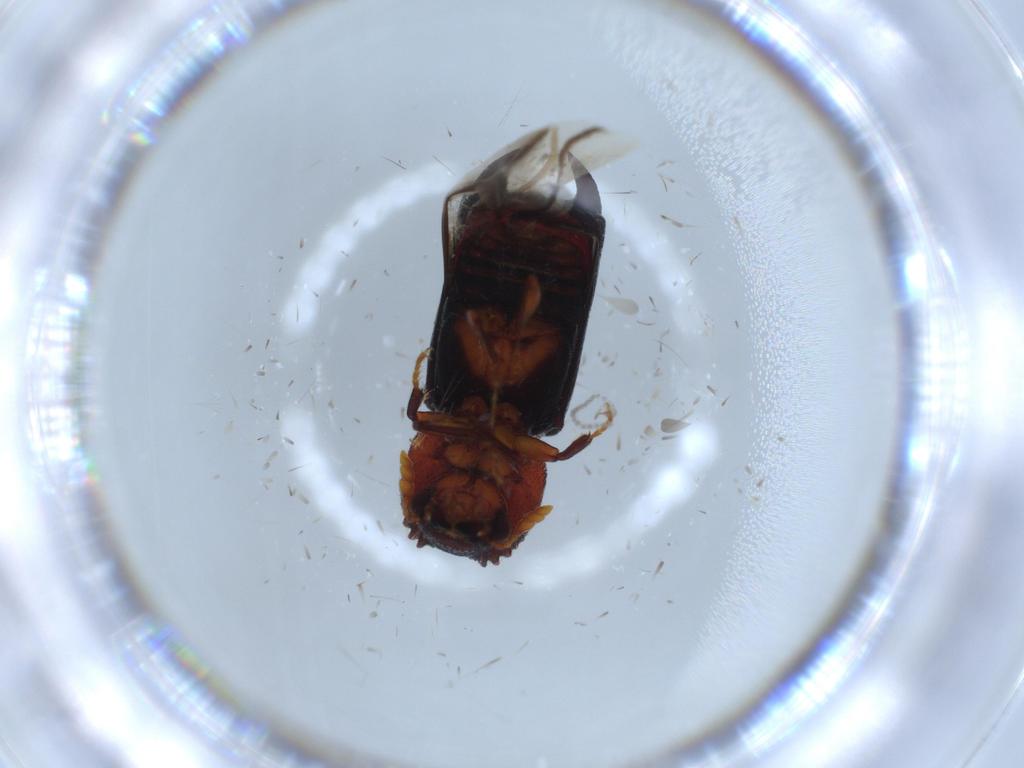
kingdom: Animalia
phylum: Arthropoda
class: Insecta
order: Coleoptera
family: Bostrichidae
